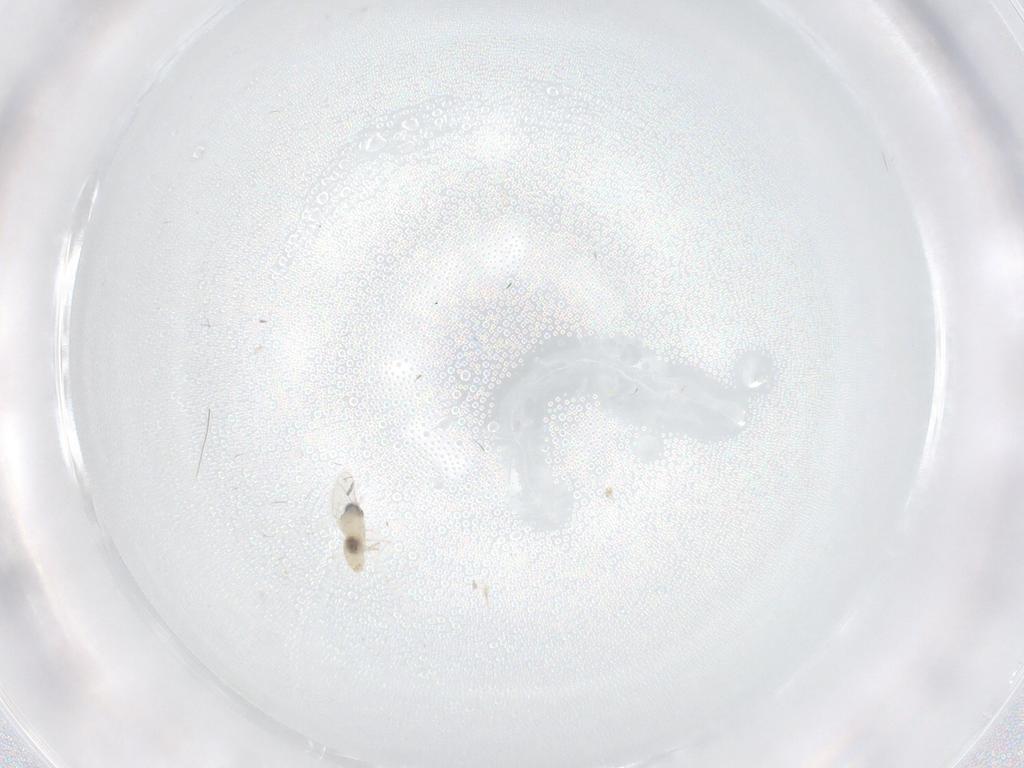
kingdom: Animalia
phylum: Arthropoda
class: Insecta
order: Diptera
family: Cecidomyiidae
